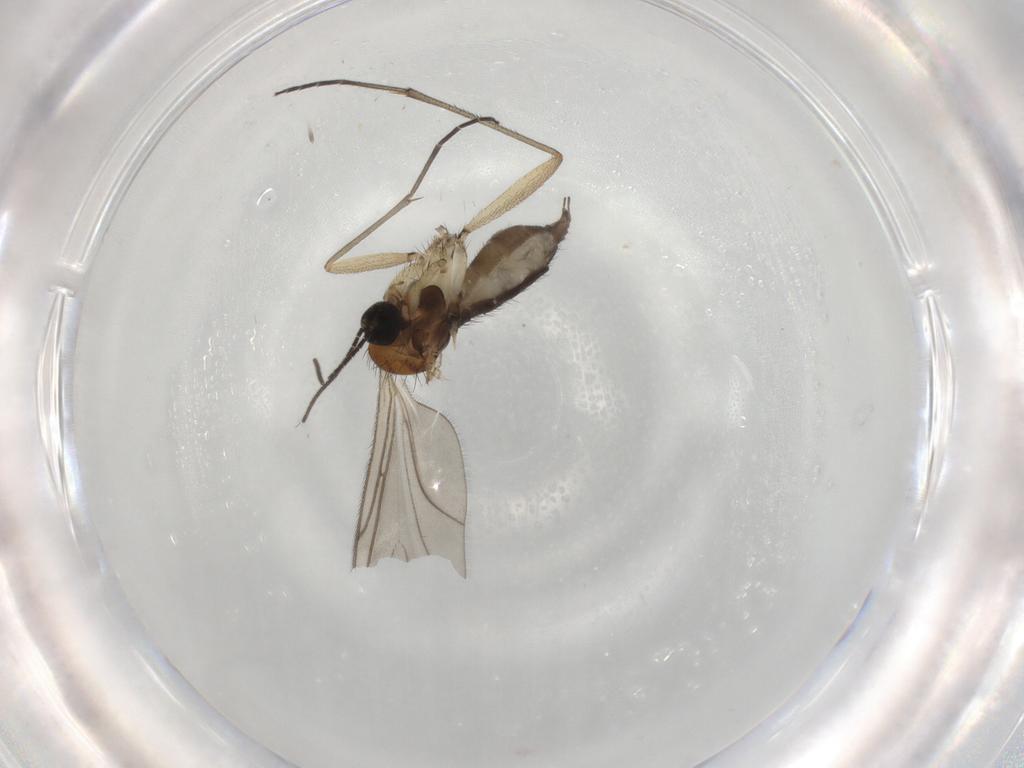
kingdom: Animalia
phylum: Arthropoda
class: Insecta
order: Diptera
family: Sciaridae
